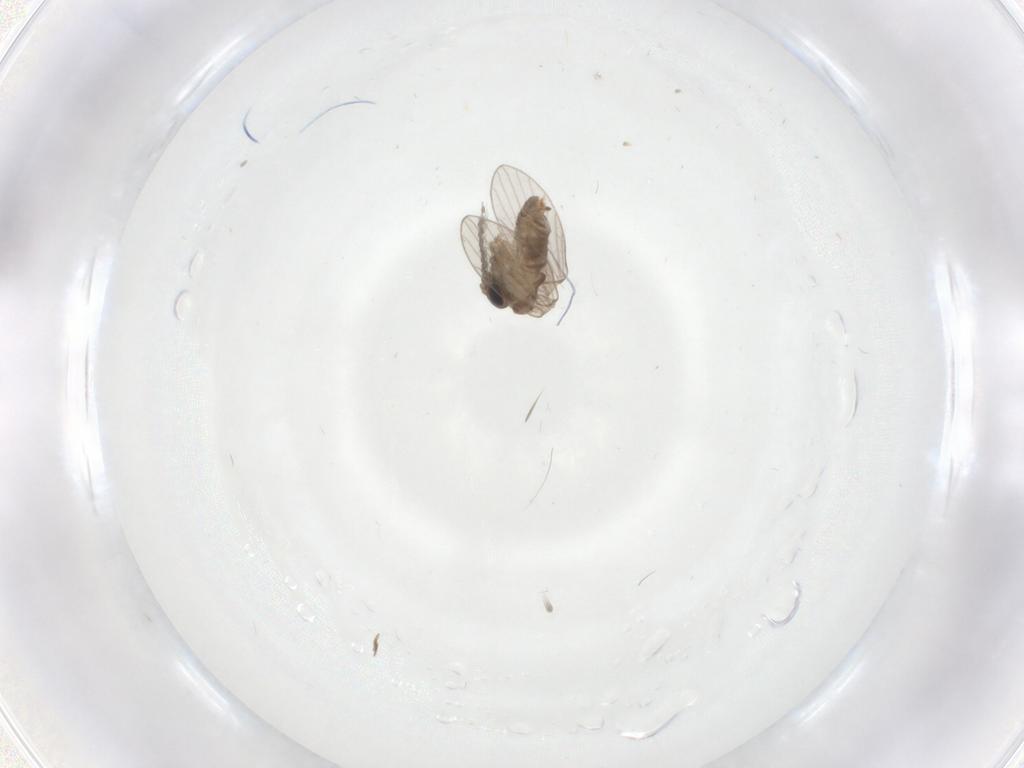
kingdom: Animalia
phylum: Arthropoda
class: Insecta
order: Diptera
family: Psychodidae
